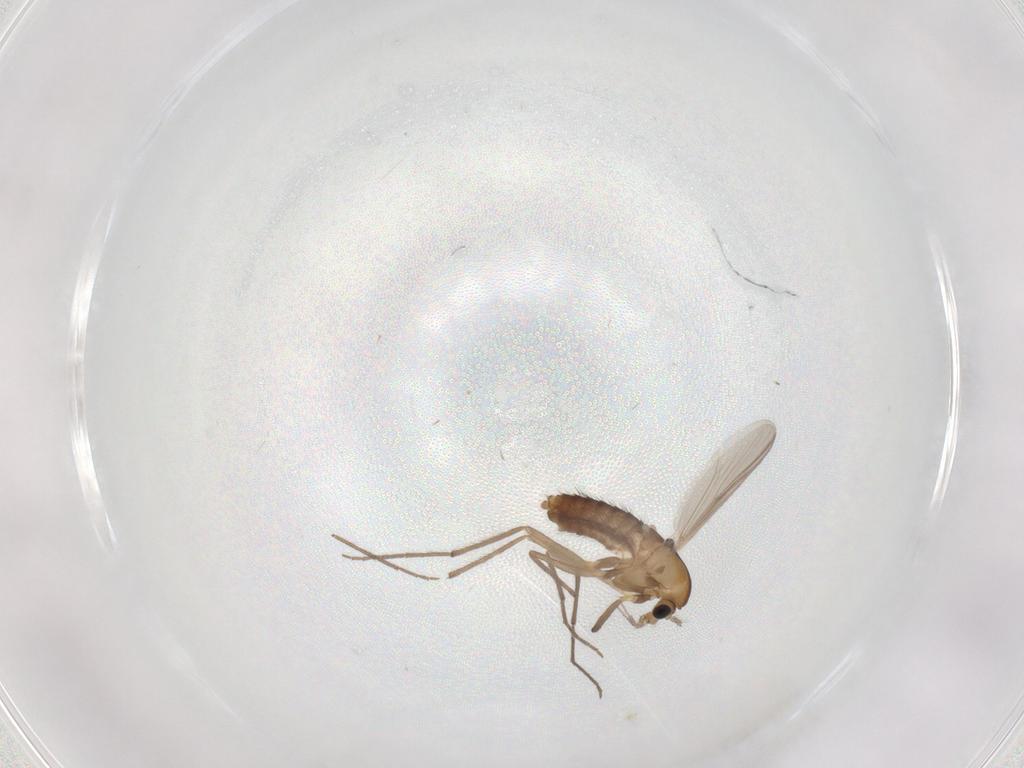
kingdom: Animalia
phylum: Arthropoda
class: Insecta
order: Diptera
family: Chironomidae
